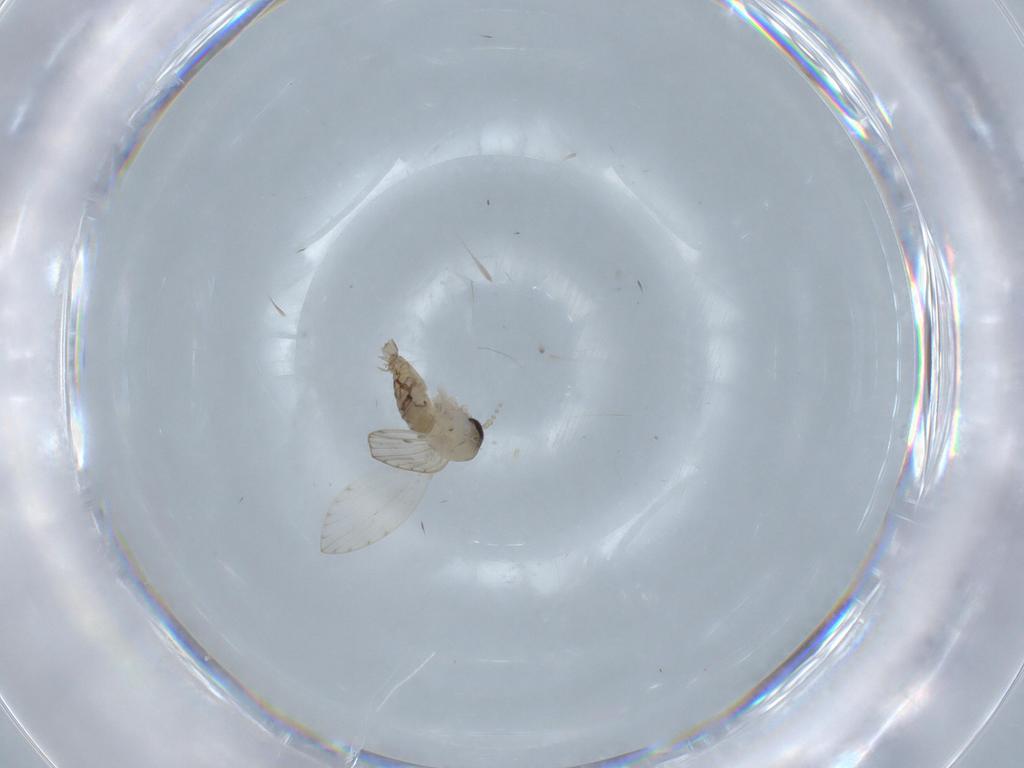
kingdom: Animalia
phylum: Arthropoda
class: Insecta
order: Diptera
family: Psychodidae
